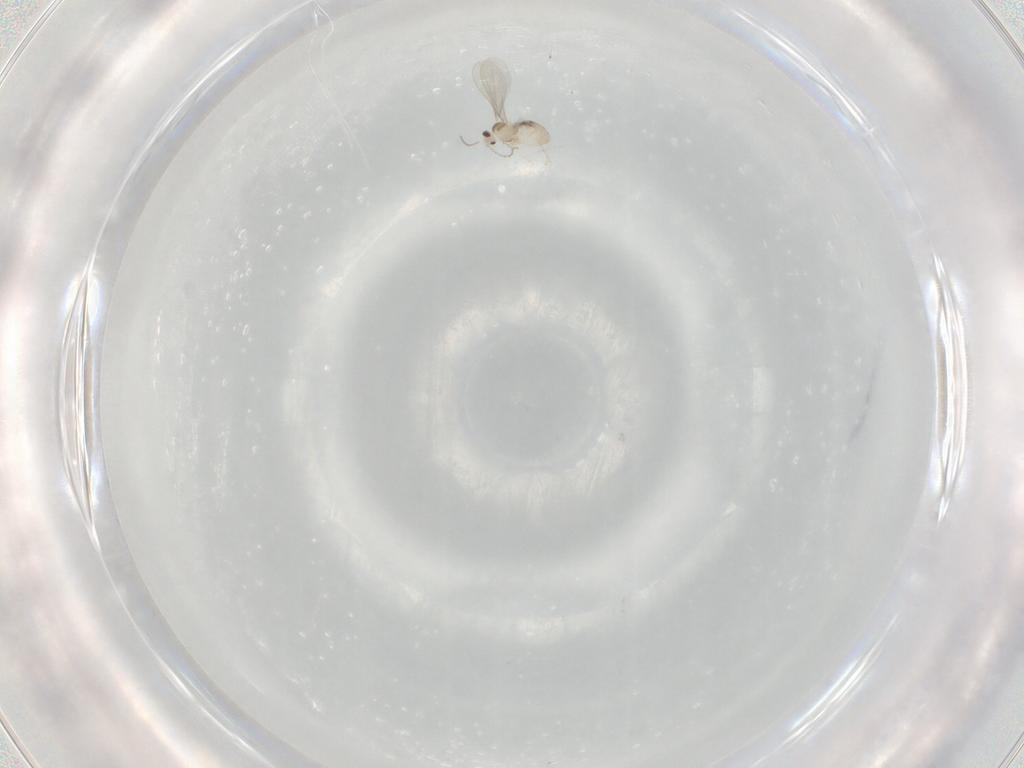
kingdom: Animalia
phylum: Arthropoda
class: Insecta
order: Diptera
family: Cecidomyiidae
